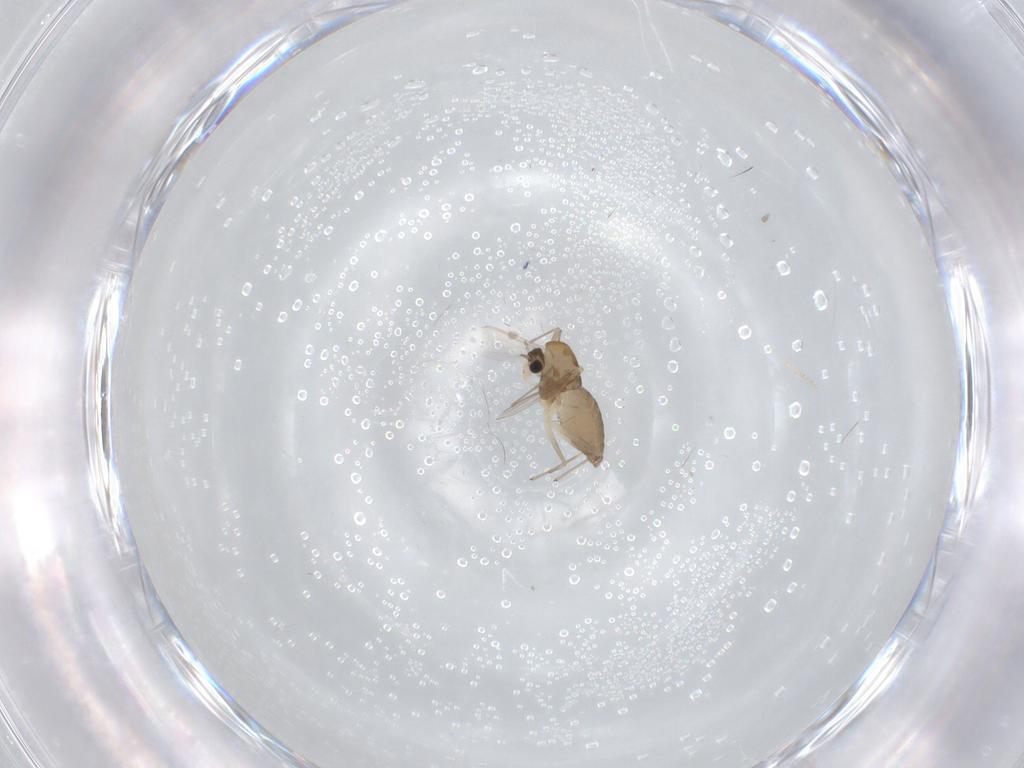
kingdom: Animalia
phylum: Arthropoda
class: Insecta
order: Diptera
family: Chironomidae
